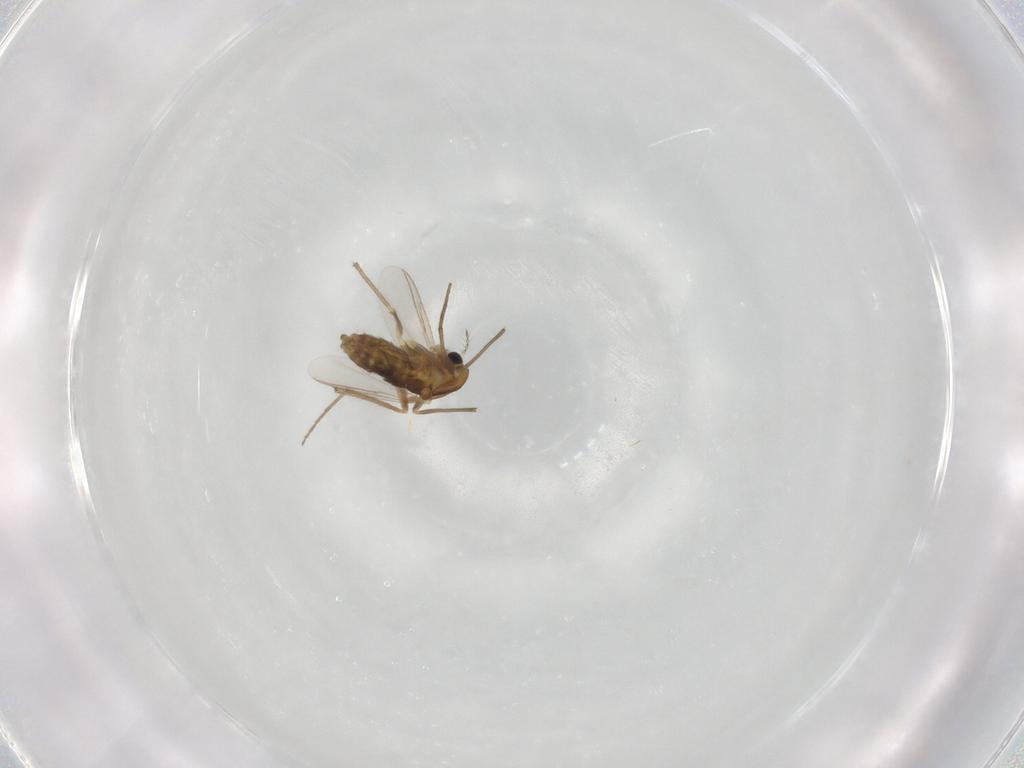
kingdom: Animalia
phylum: Arthropoda
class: Insecta
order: Diptera
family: Chironomidae
